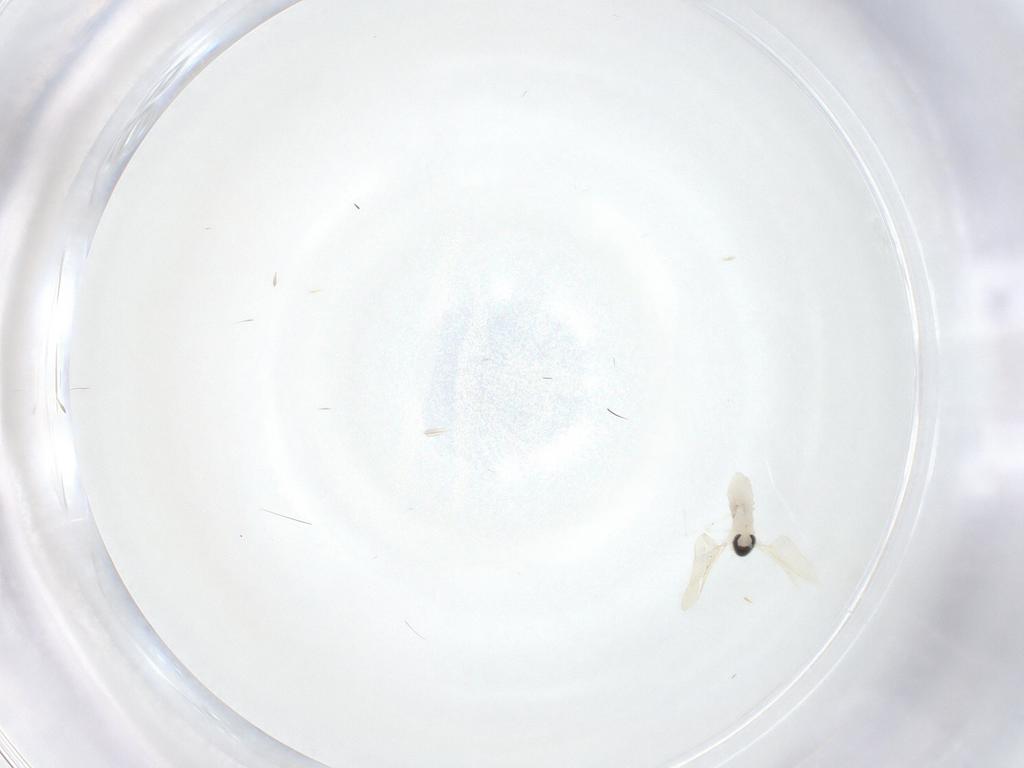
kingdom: Animalia
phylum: Arthropoda
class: Insecta
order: Diptera
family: Cecidomyiidae
